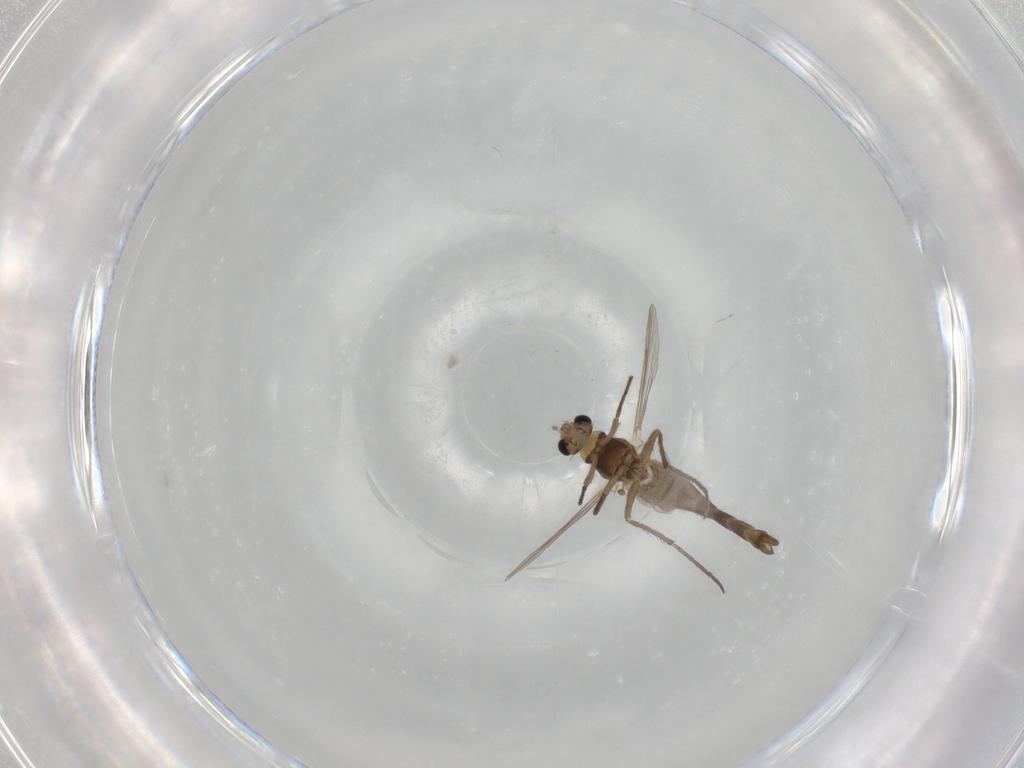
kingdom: Animalia
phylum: Arthropoda
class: Insecta
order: Diptera
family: Chironomidae
